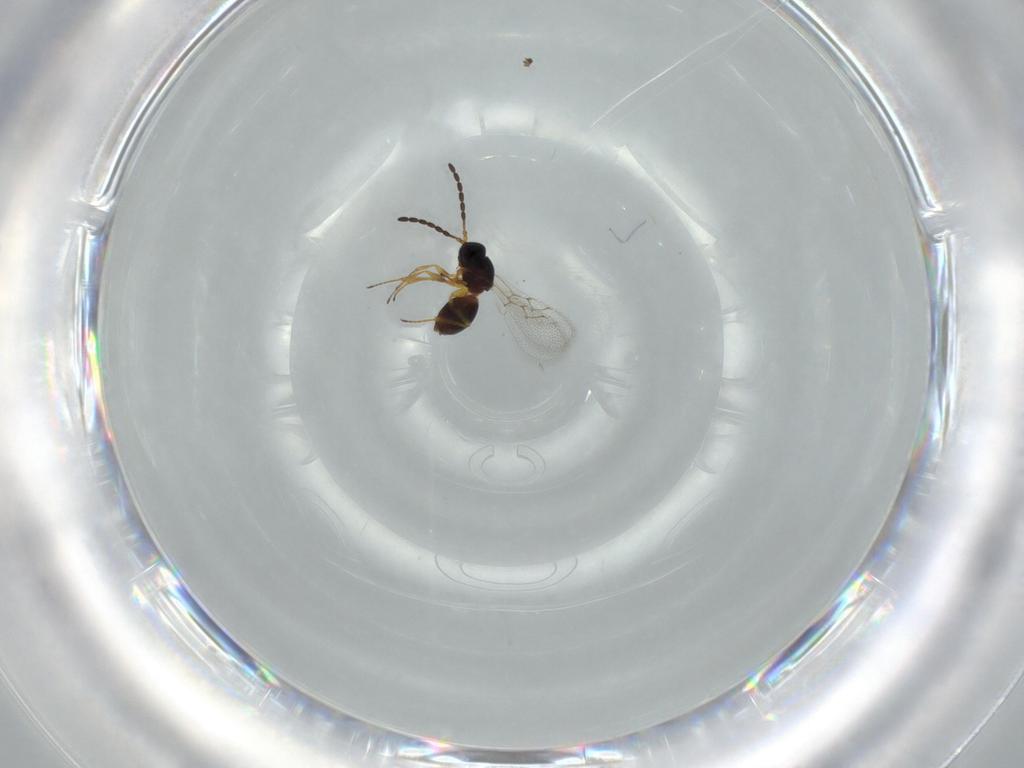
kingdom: Animalia
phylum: Arthropoda
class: Insecta
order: Hymenoptera
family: Figitidae
